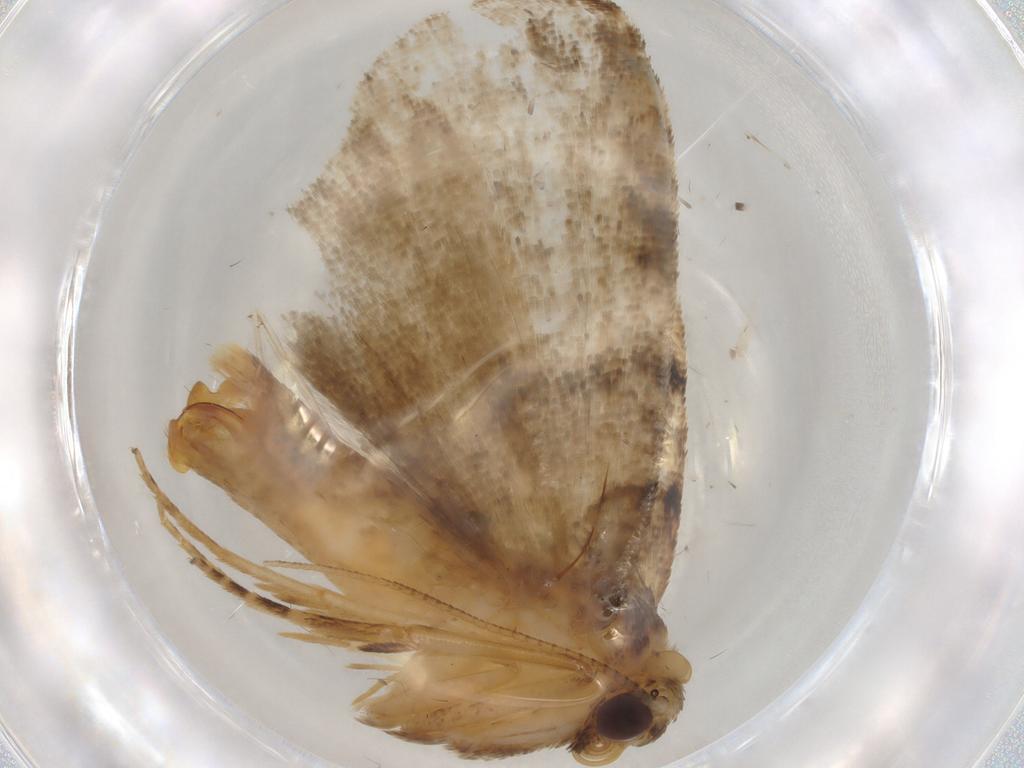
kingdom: Animalia
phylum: Arthropoda
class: Insecta
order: Lepidoptera
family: Erebidae
